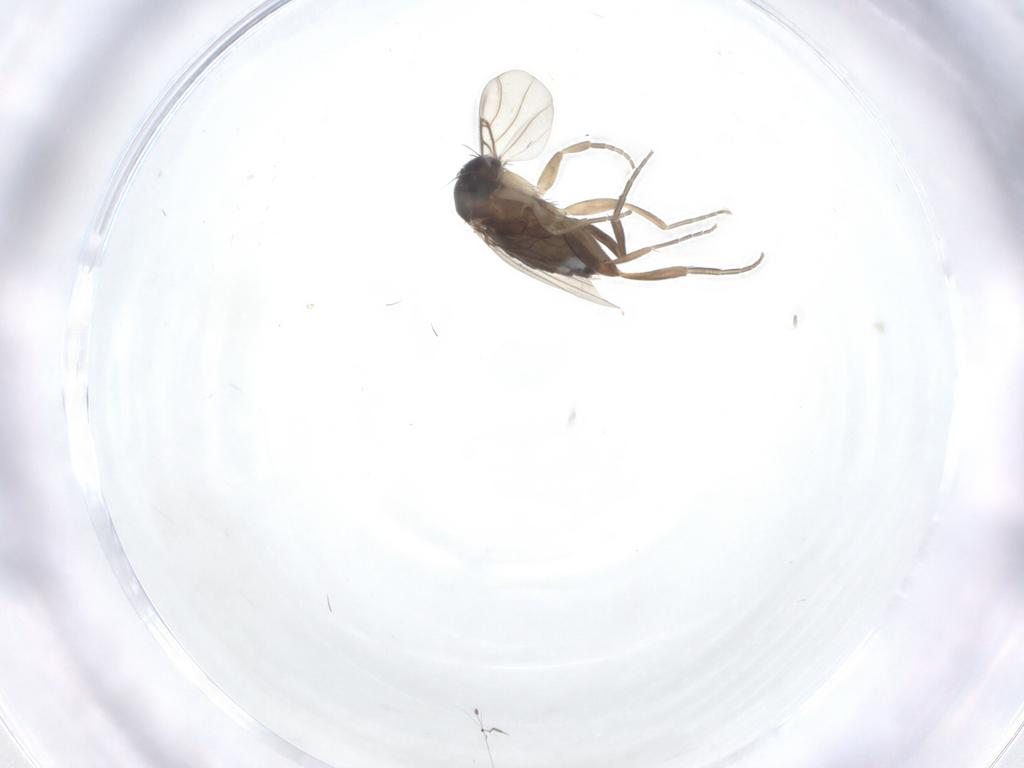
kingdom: Animalia
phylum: Arthropoda
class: Insecta
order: Diptera
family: Phoridae
